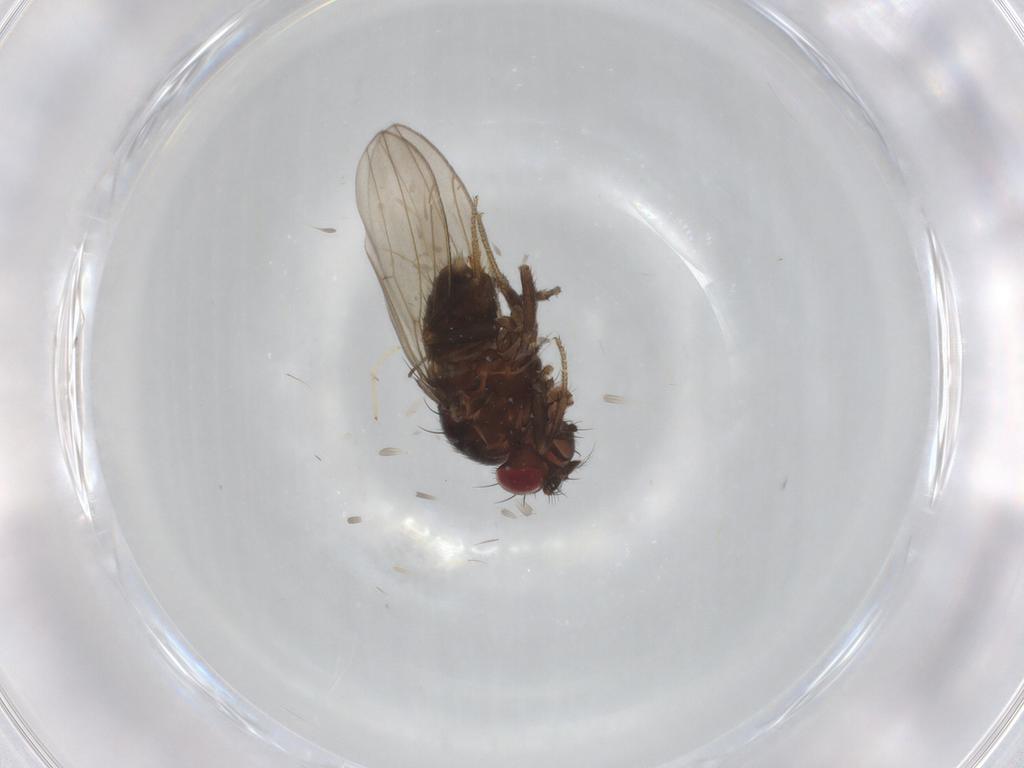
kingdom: Animalia
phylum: Arthropoda
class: Insecta
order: Diptera
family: Drosophilidae
